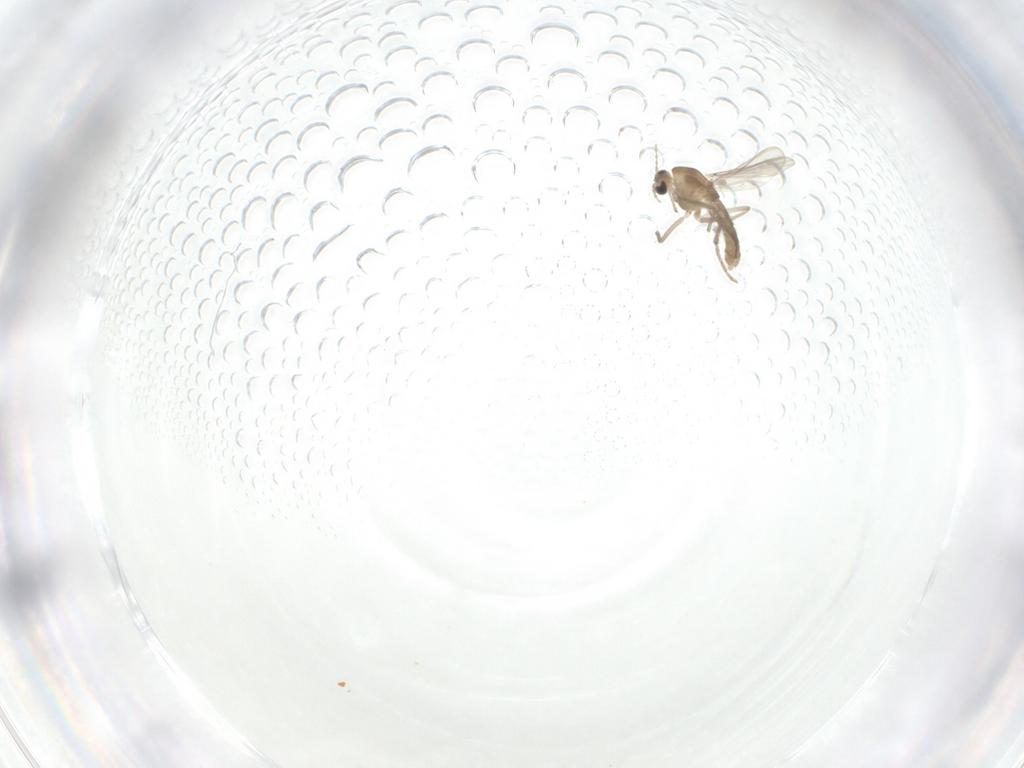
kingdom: Animalia
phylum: Arthropoda
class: Insecta
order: Diptera
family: Chironomidae
